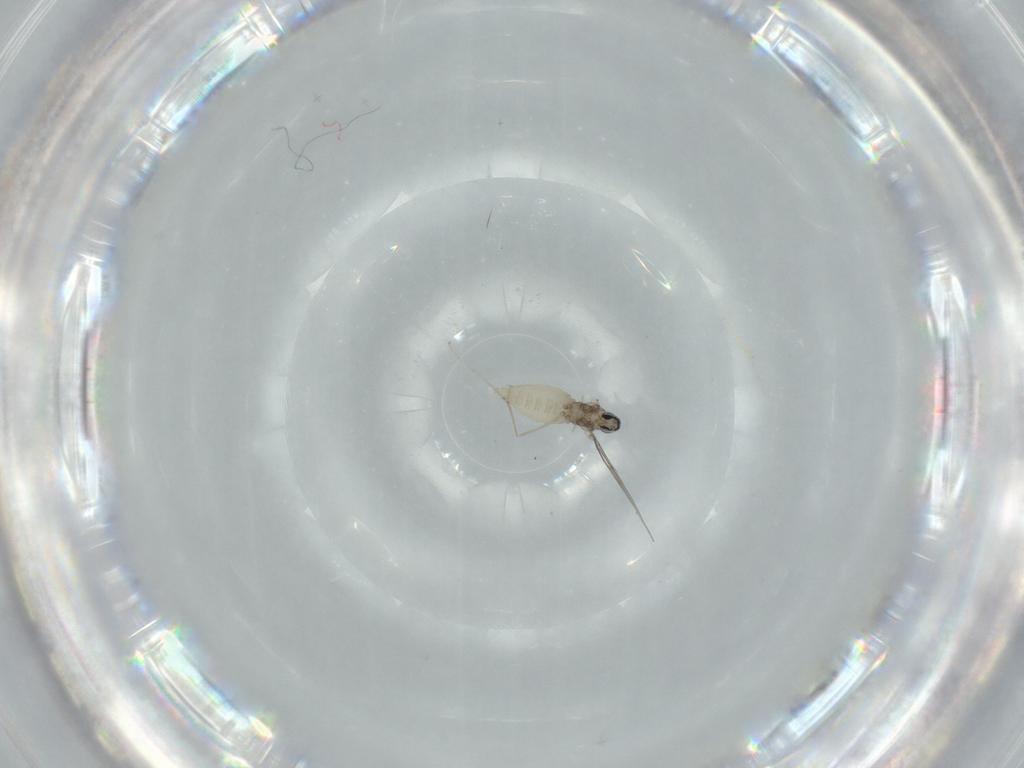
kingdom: Animalia
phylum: Arthropoda
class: Insecta
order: Diptera
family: Cecidomyiidae
